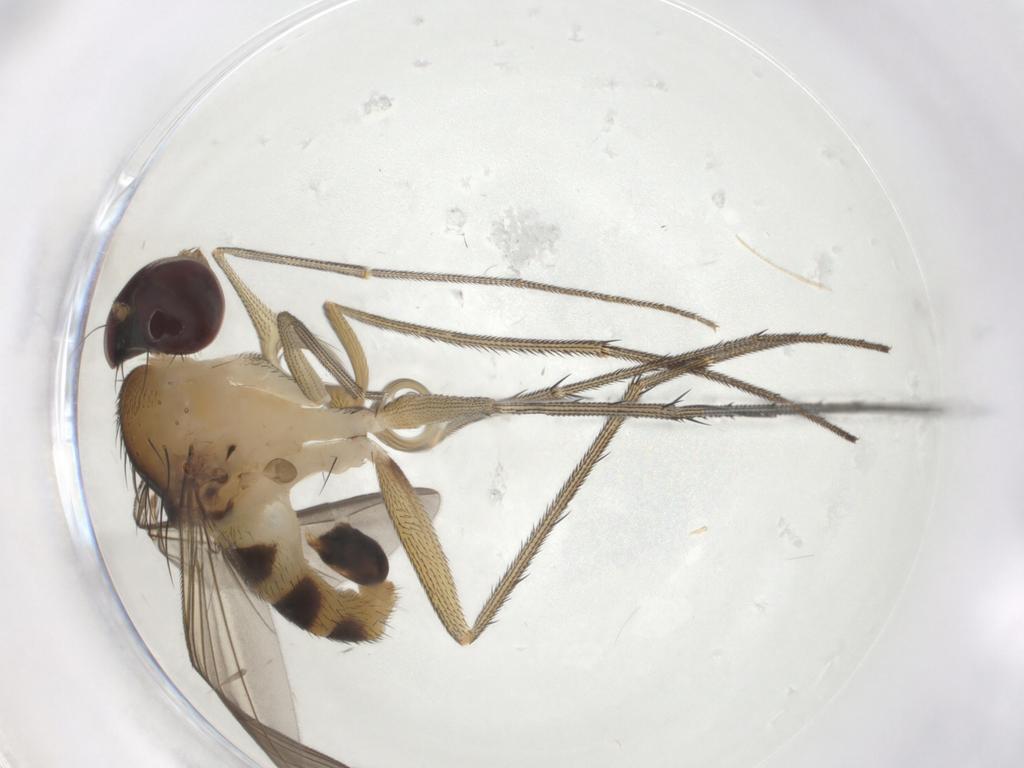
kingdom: Animalia
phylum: Arthropoda
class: Insecta
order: Diptera
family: Dolichopodidae
